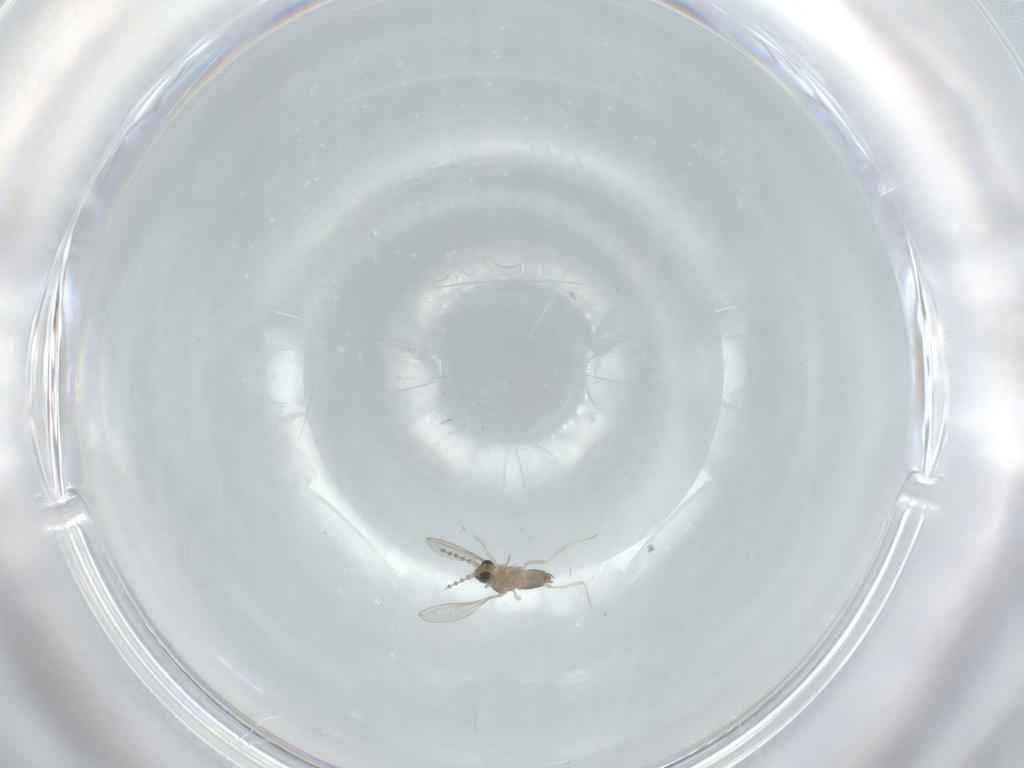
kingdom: Animalia
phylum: Arthropoda
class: Insecta
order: Diptera
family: Cecidomyiidae
